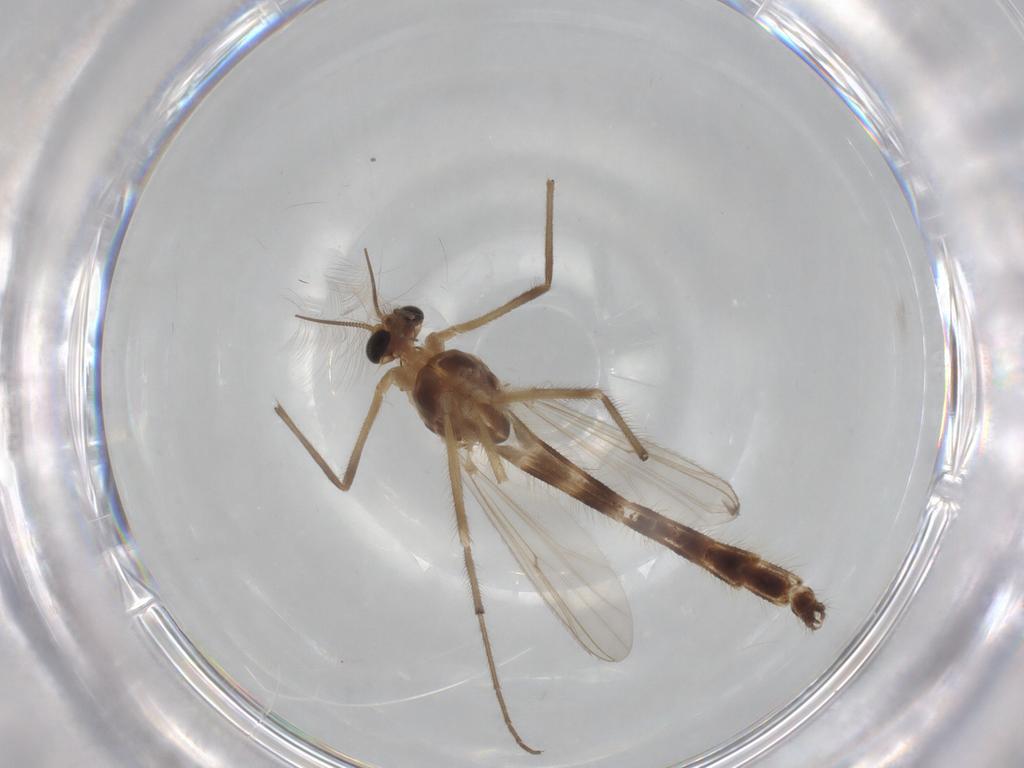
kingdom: Animalia
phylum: Arthropoda
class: Insecta
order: Diptera
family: Chironomidae
